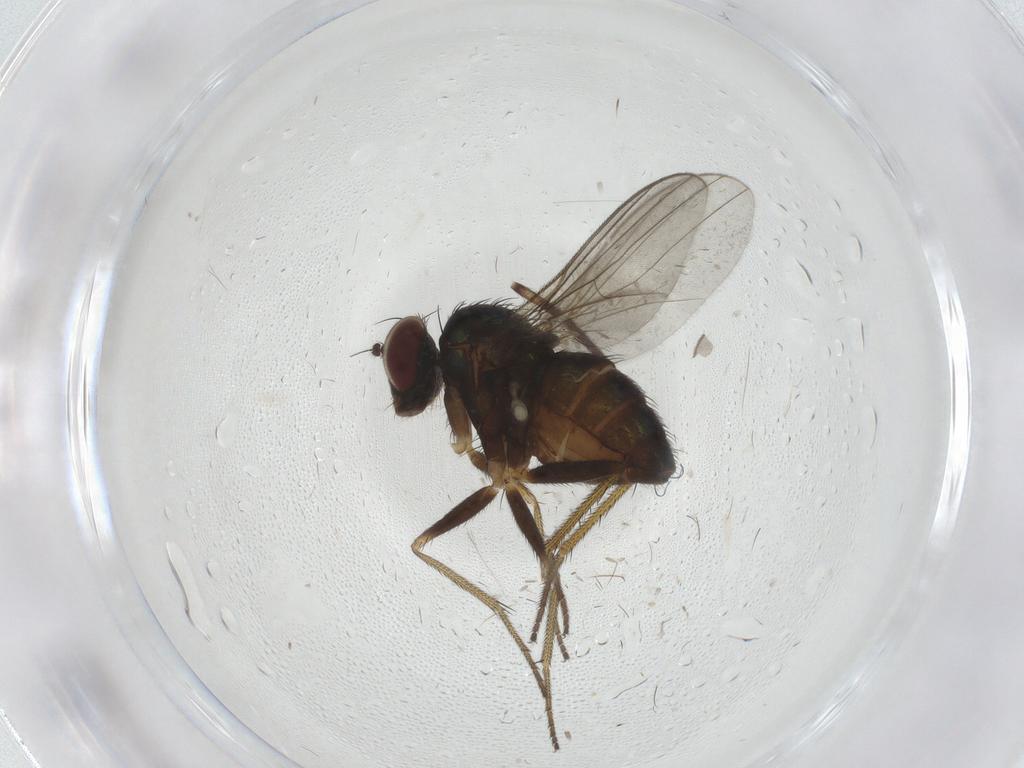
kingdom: Animalia
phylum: Arthropoda
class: Insecta
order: Diptera
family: Dolichopodidae
